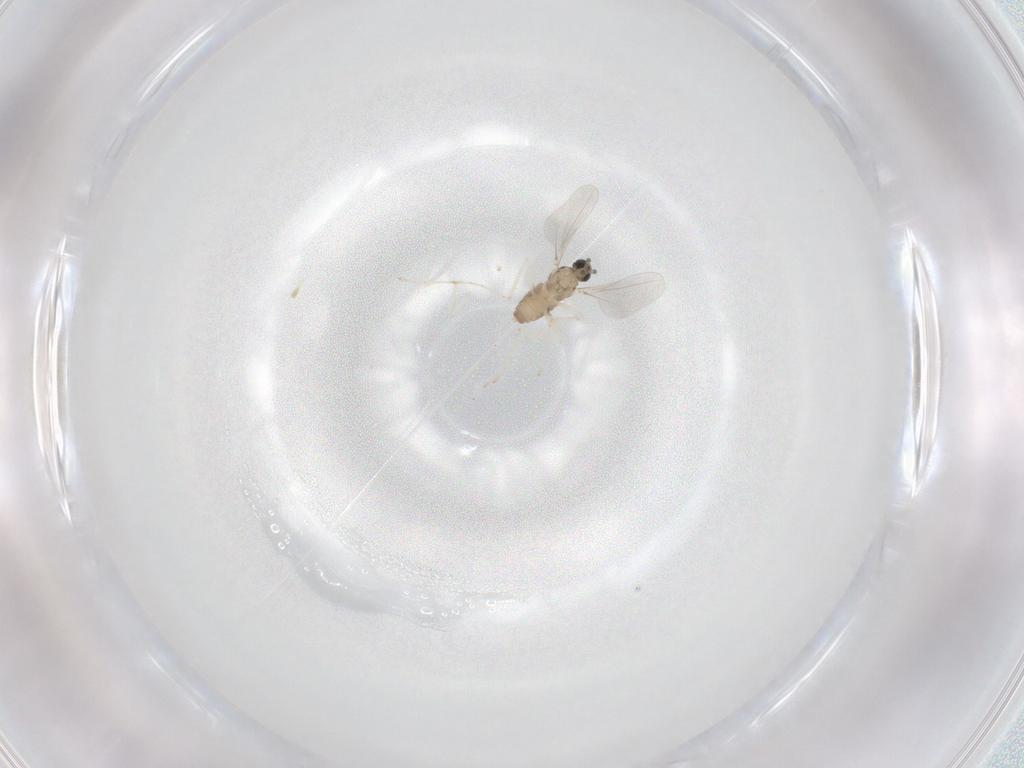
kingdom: Animalia
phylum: Arthropoda
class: Insecta
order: Diptera
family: Cecidomyiidae
